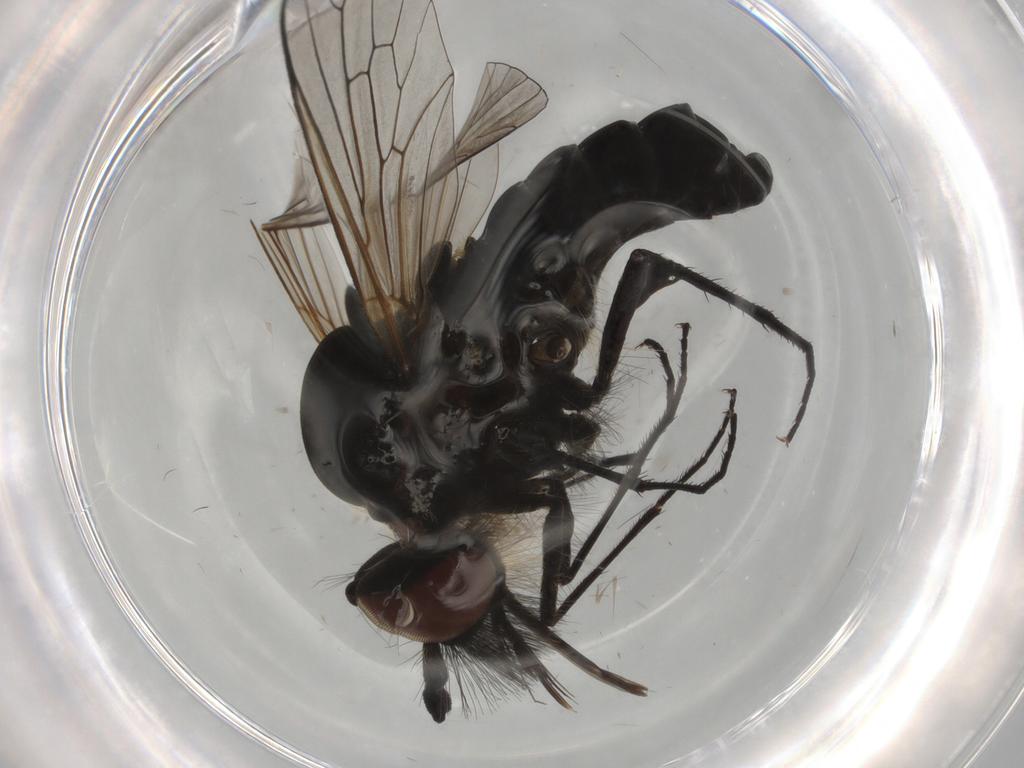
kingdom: Animalia
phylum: Arthropoda
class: Insecta
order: Diptera
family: Bombyliidae
